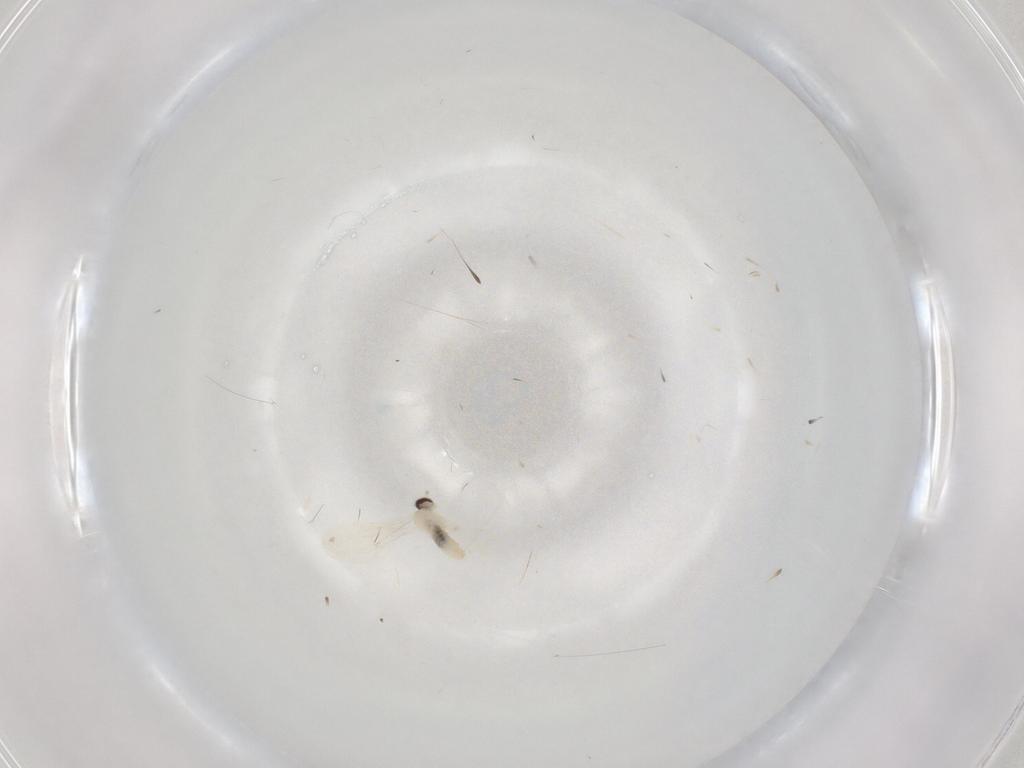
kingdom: Animalia
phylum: Arthropoda
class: Insecta
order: Diptera
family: Cecidomyiidae
